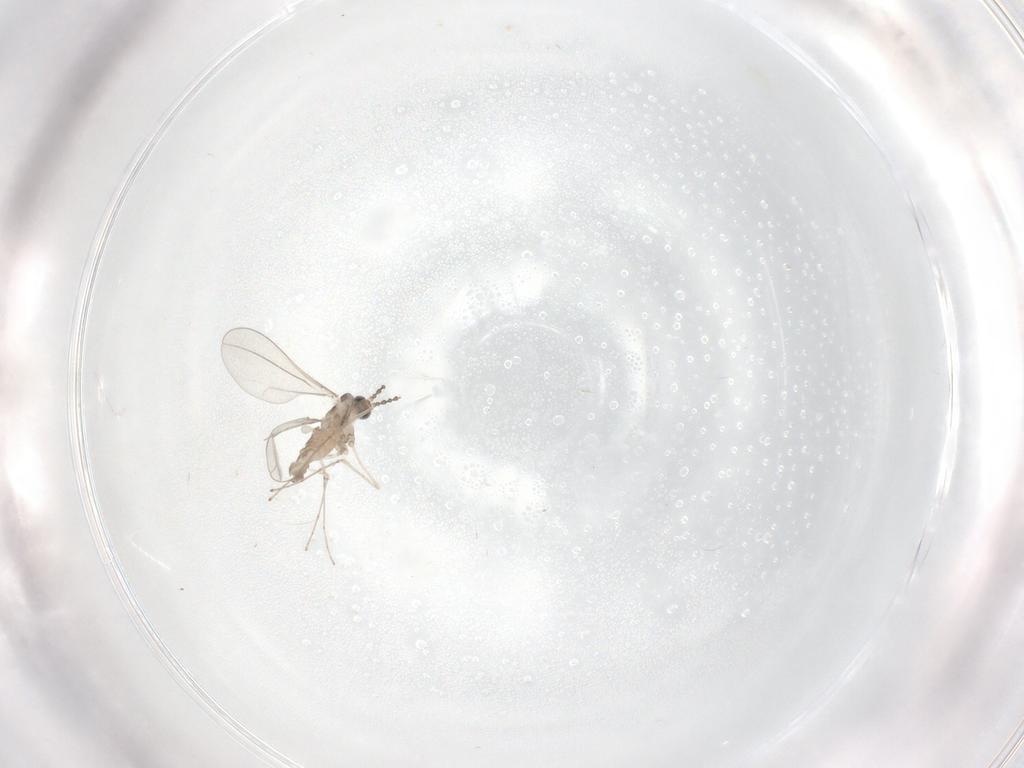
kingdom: Animalia
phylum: Arthropoda
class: Insecta
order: Diptera
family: Cecidomyiidae
